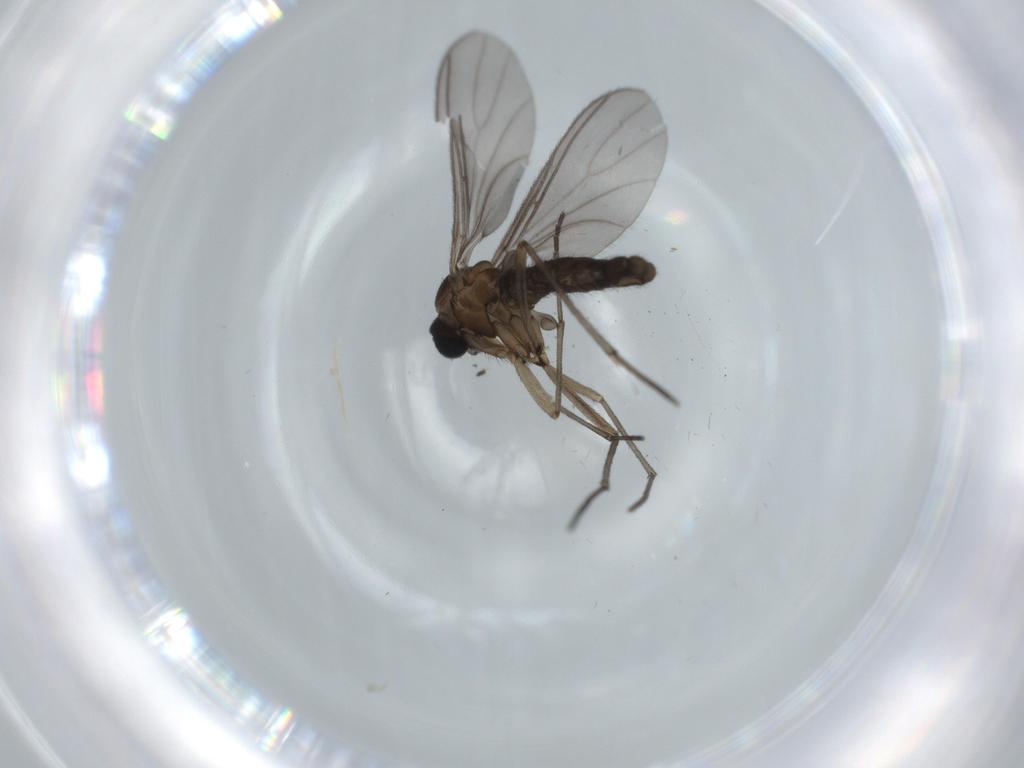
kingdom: Animalia
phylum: Arthropoda
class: Insecta
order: Diptera
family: Sciaridae
